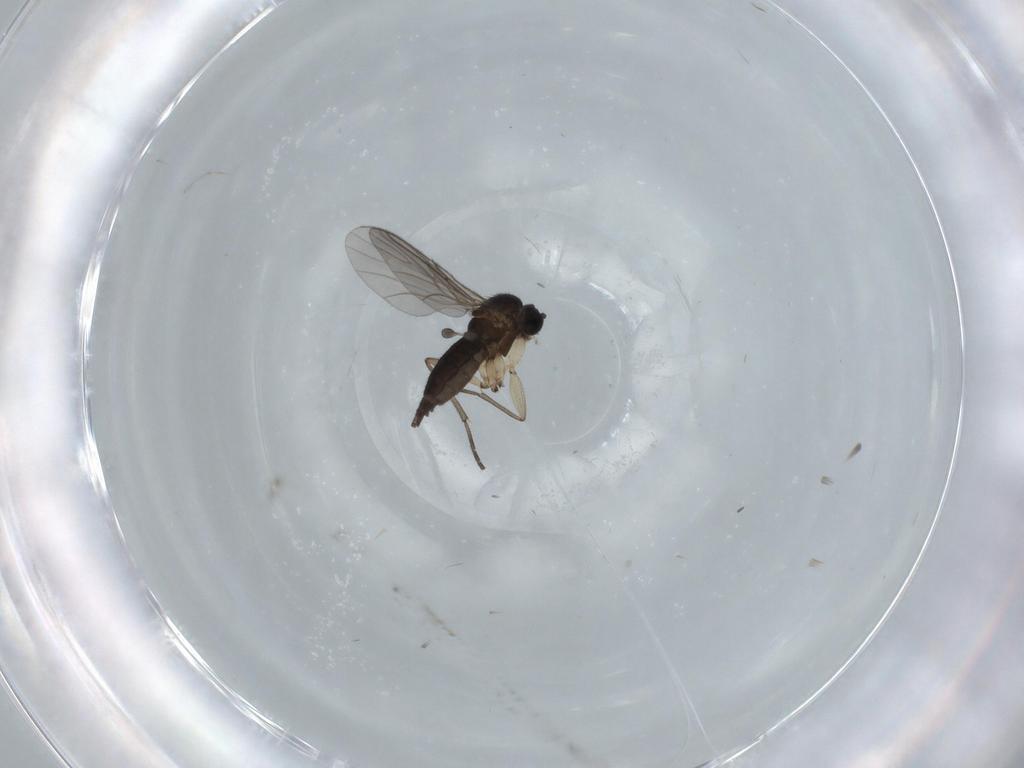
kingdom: Animalia
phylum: Arthropoda
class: Insecta
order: Diptera
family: Sciaridae
